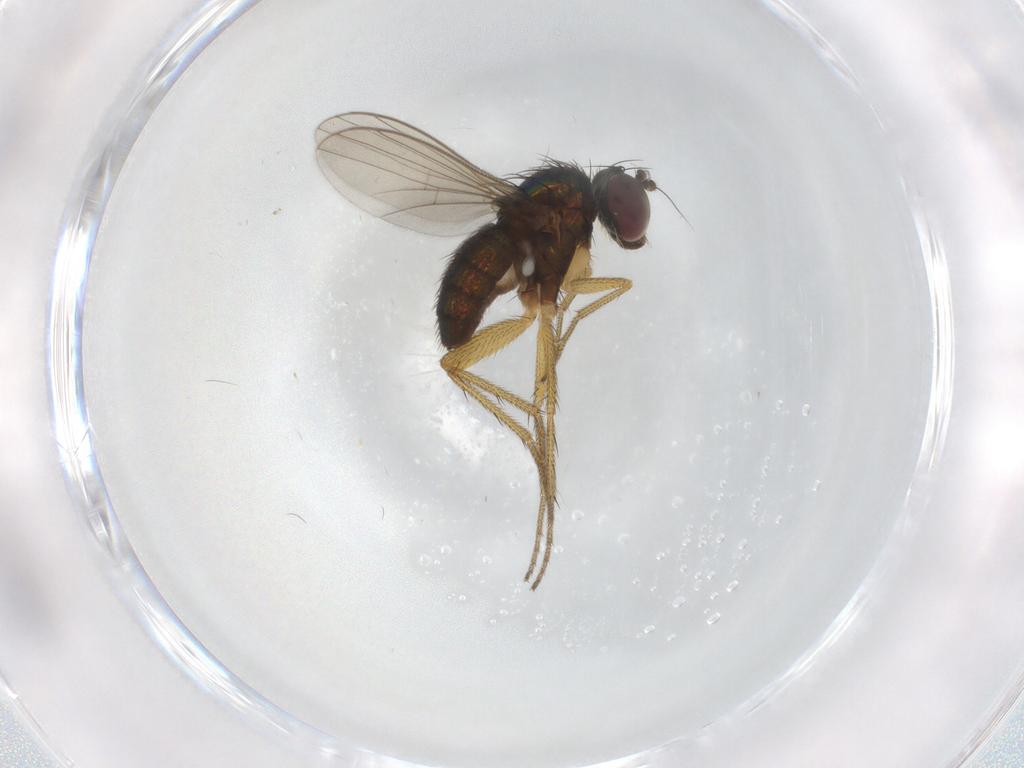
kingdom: Animalia
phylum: Arthropoda
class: Insecta
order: Diptera
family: Dolichopodidae
